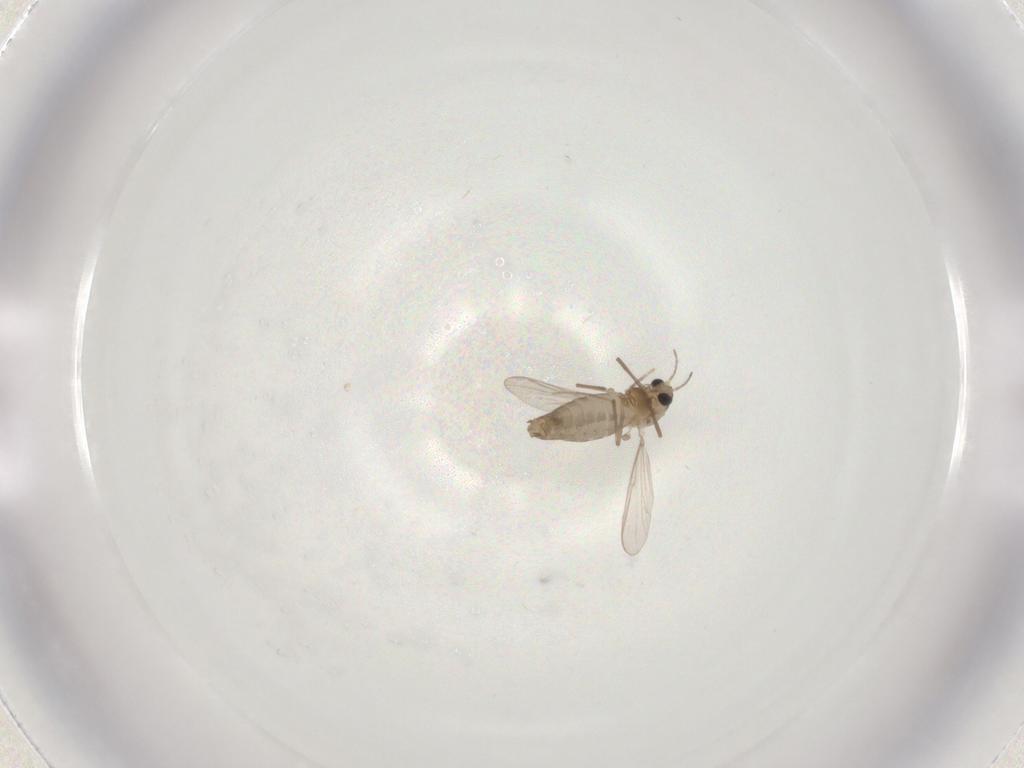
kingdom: Animalia
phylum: Arthropoda
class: Insecta
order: Diptera
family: Chironomidae
